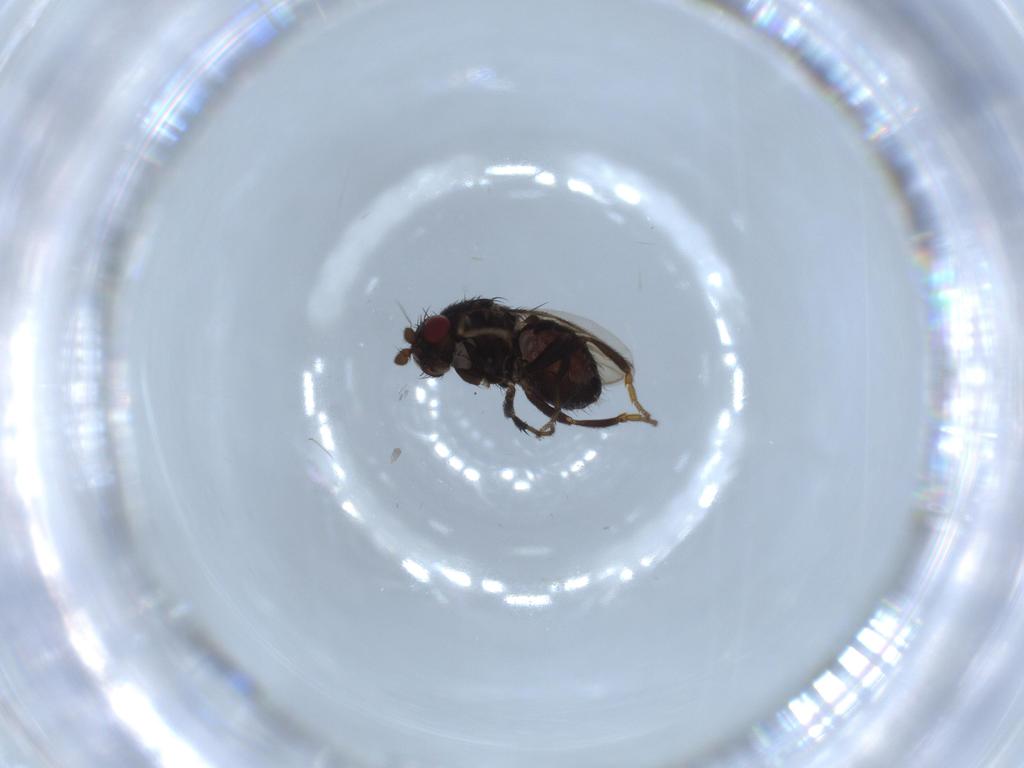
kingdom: Animalia
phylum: Arthropoda
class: Insecta
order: Diptera
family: Sphaeroceridae
